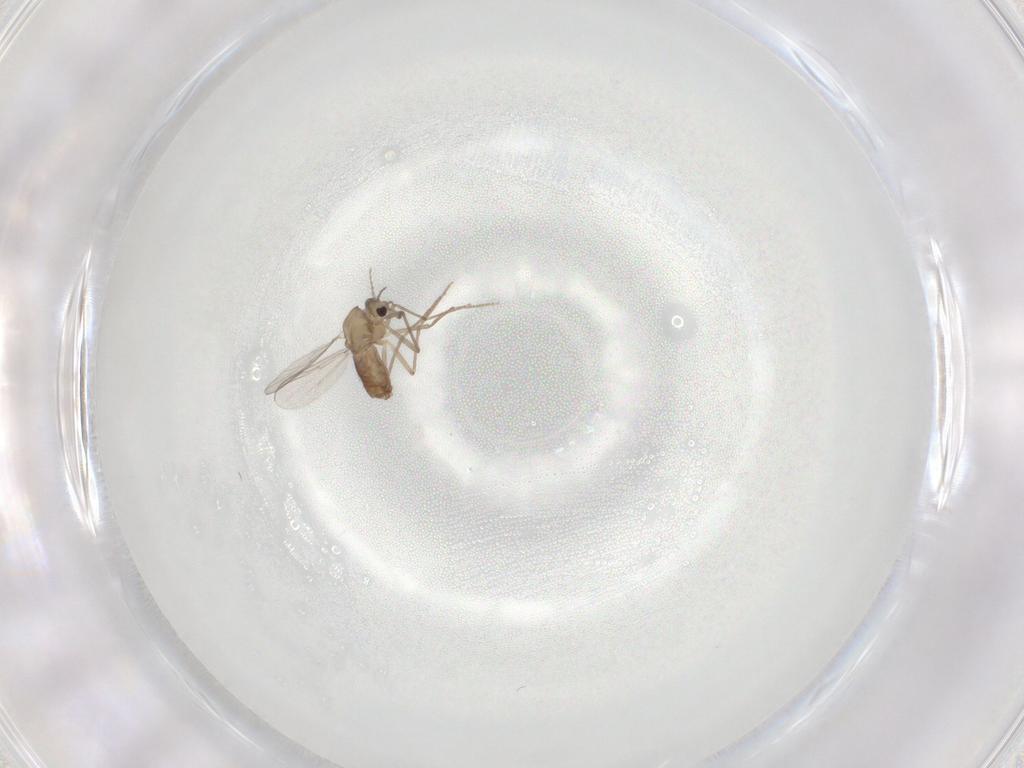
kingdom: Animalia
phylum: Arthropoda
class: Insecta
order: Diptera
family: Chironomidae
